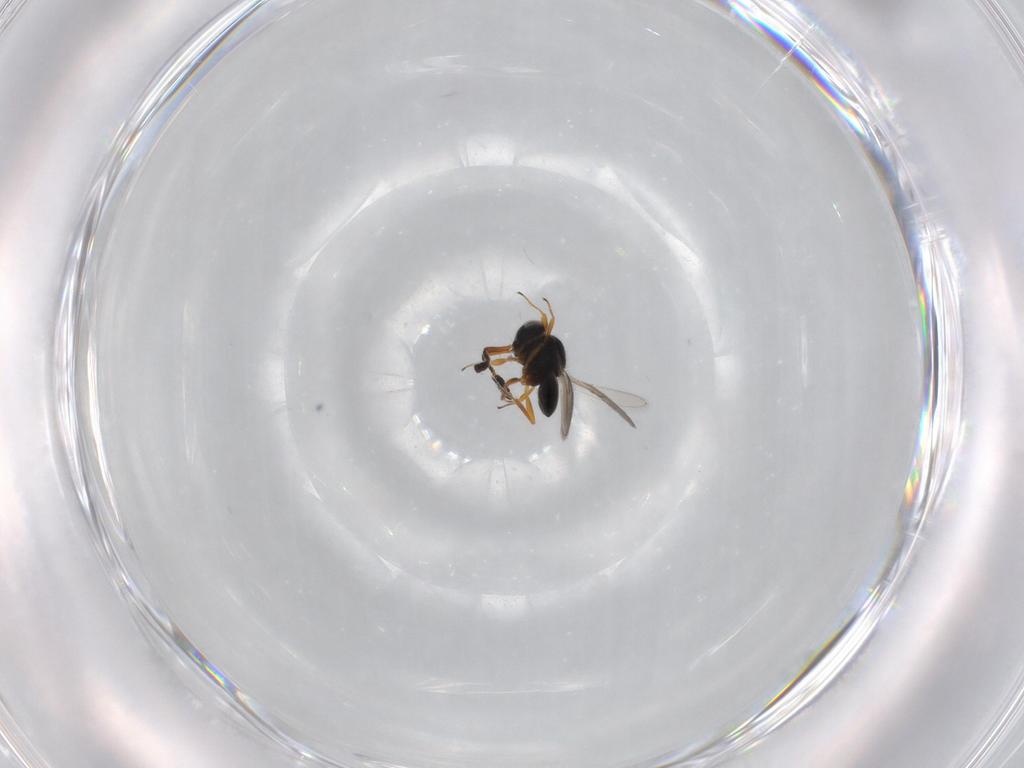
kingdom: Animalia
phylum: Arthropoda
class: Insecta
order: Hymenoptera
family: Scelionidae
